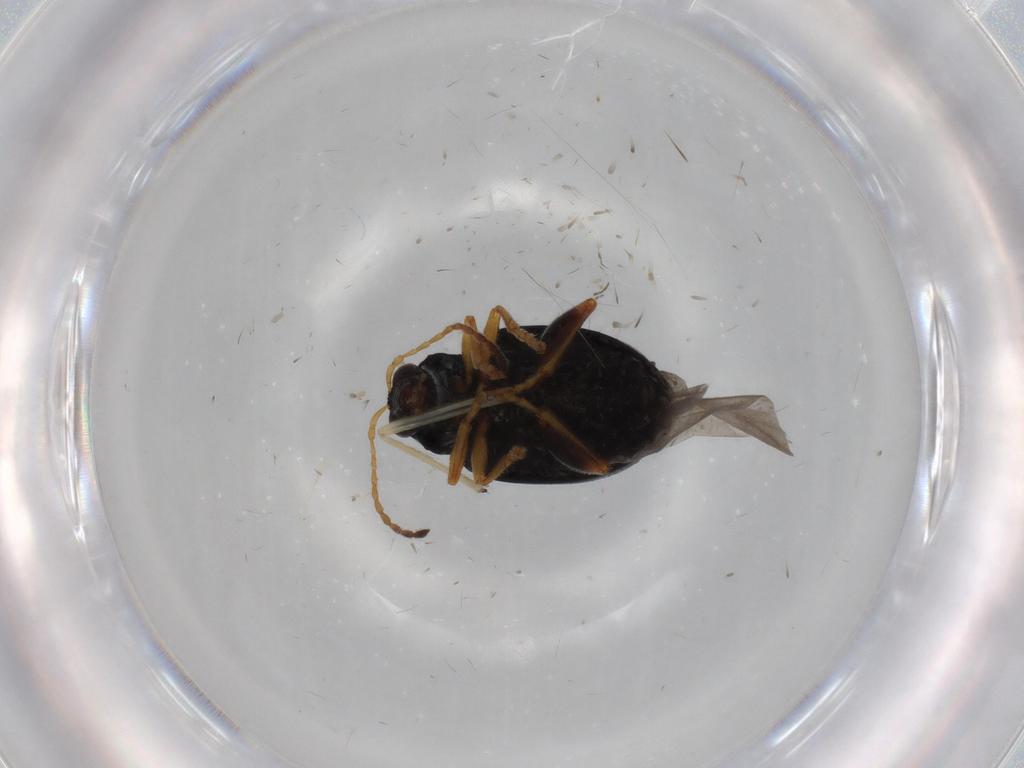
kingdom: Animalia
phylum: Arthropoda
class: Insecta
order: Coleoptera
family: Chrysomelidae
